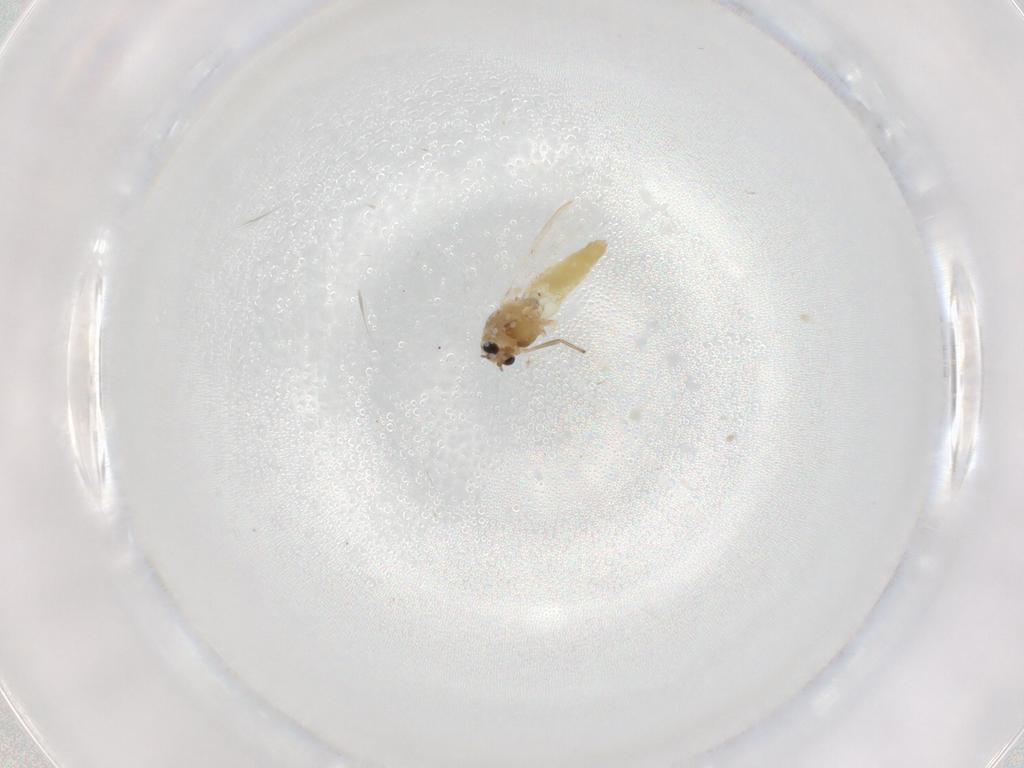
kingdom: Animalia
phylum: Arthropoda
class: Insecta
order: Diptera
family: Chironomidae
